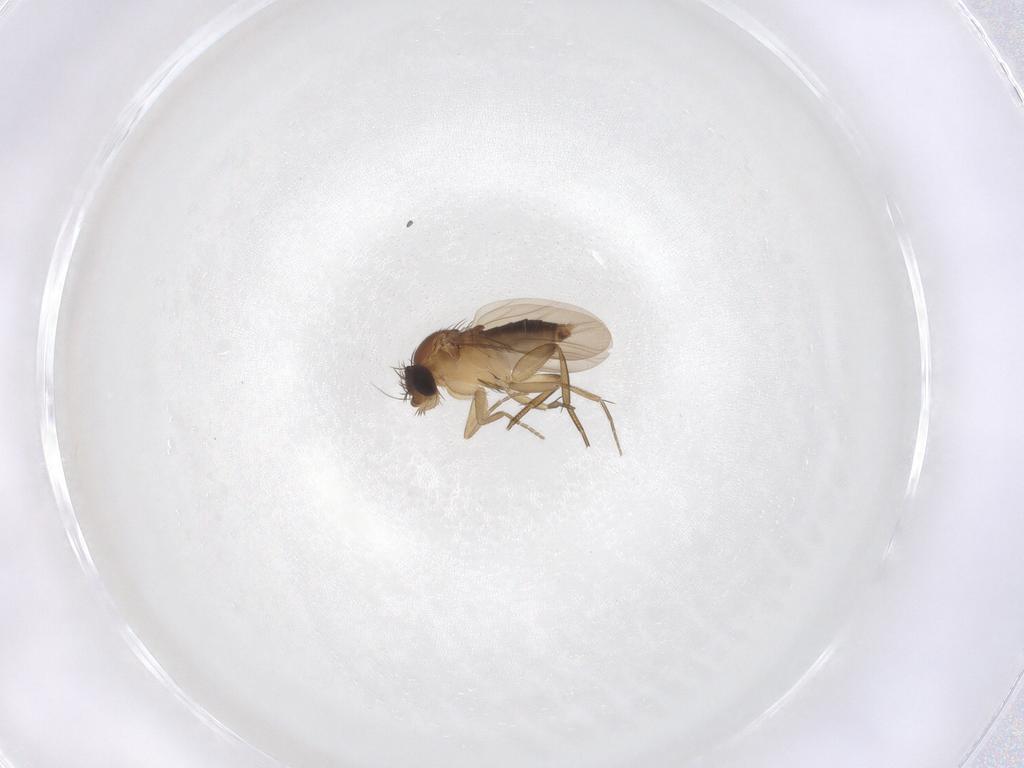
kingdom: Animalia
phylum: Arthropoda
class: Insecta
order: Diptera
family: Phoridae
